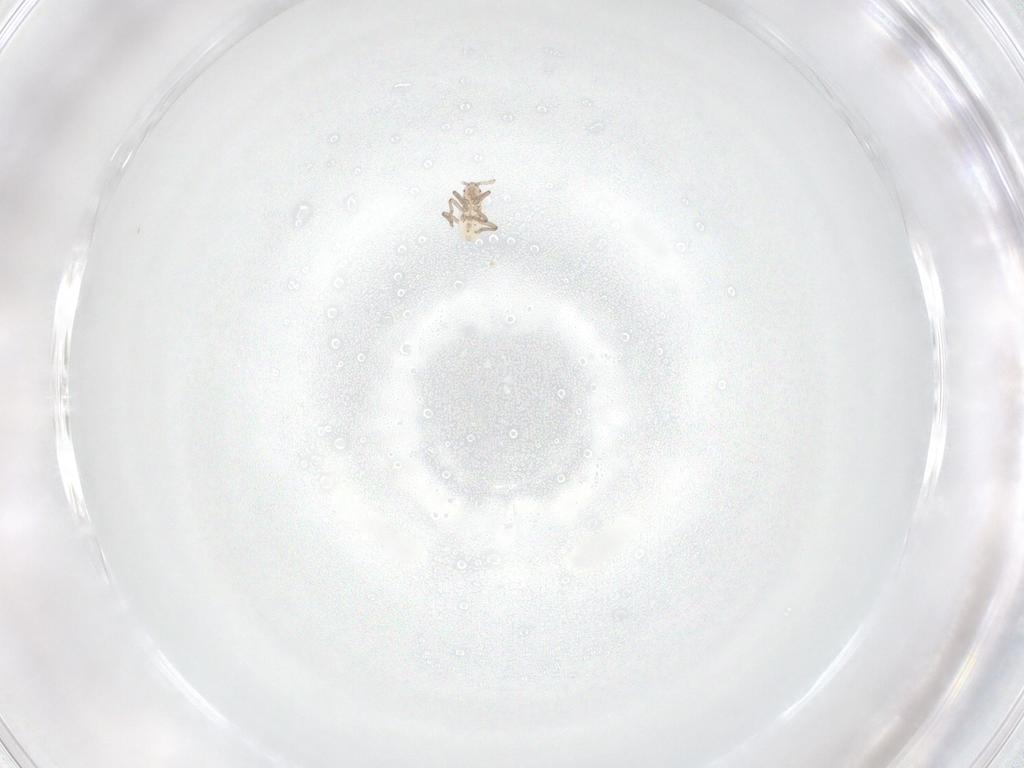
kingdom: Animalia
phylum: Arthropoda
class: Insecta
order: Hemiptera
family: Aphididae
